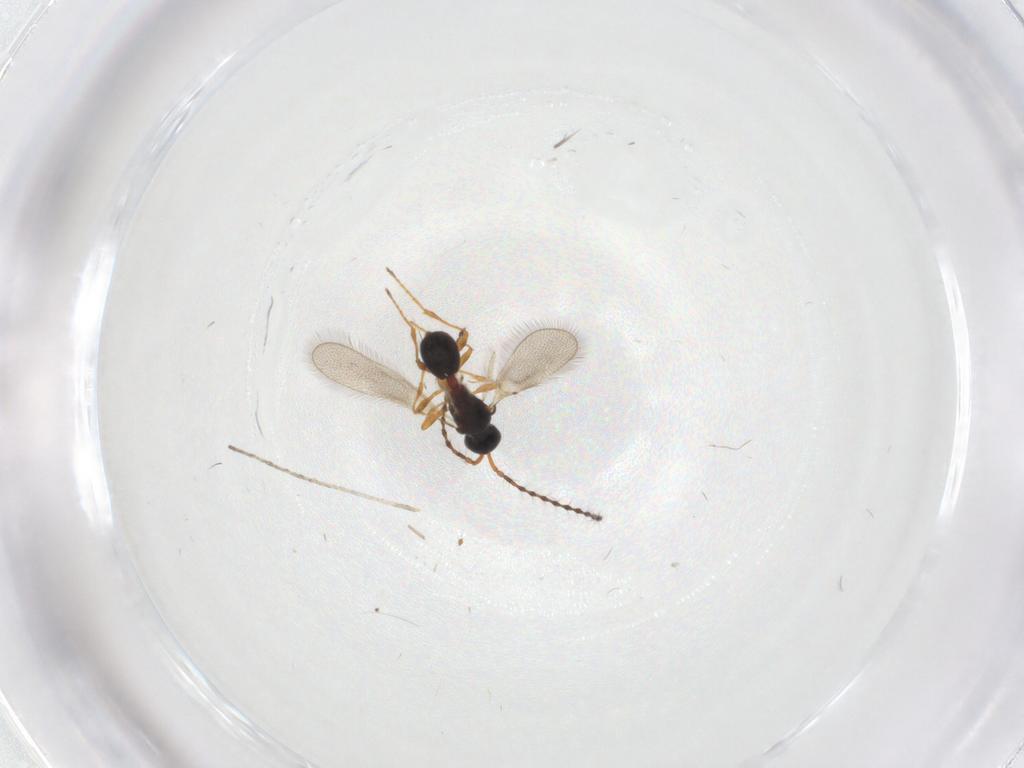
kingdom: Animalia
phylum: Arthropoda
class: Insecta
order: Hymenoptera
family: Diapriidae
